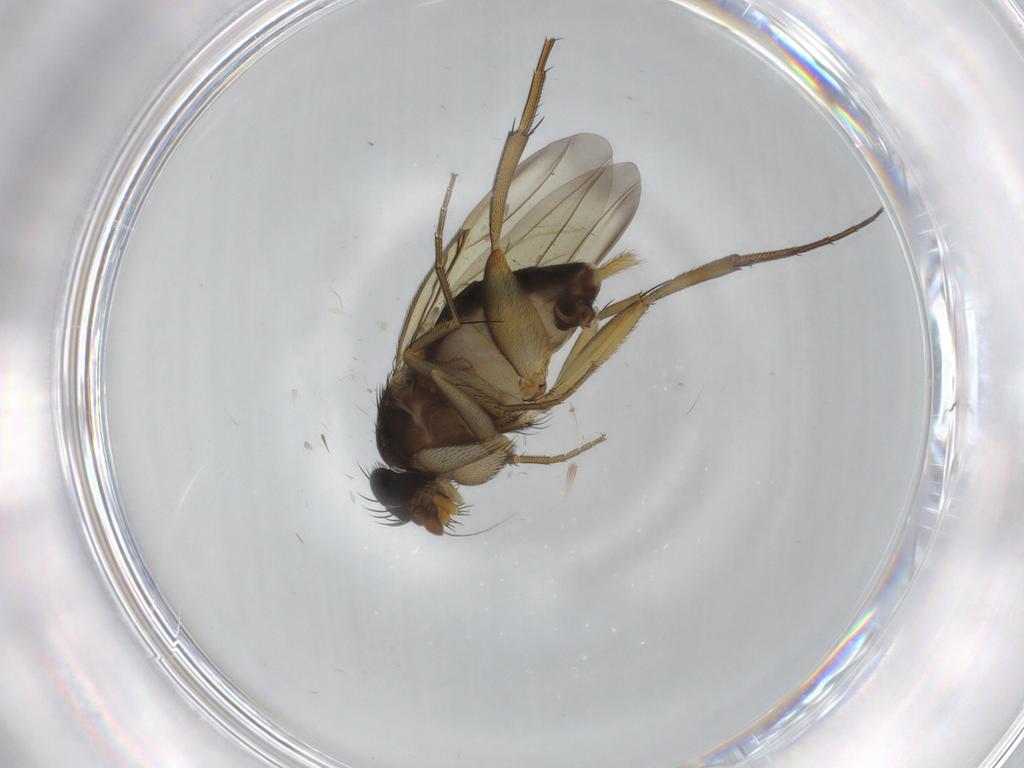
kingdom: Animalia
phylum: Arthropoda
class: Insecta
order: Diptera
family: Phoridae
